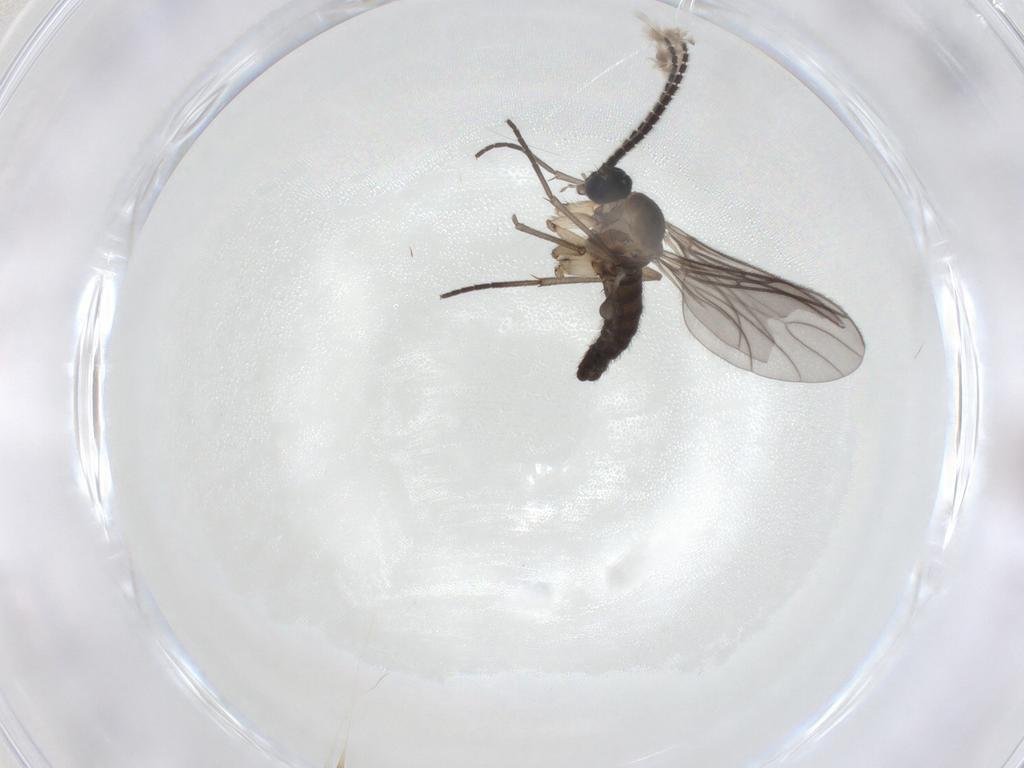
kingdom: Animalia
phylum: Arthropoda
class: Insecta
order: Diptera
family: Sciaridae
